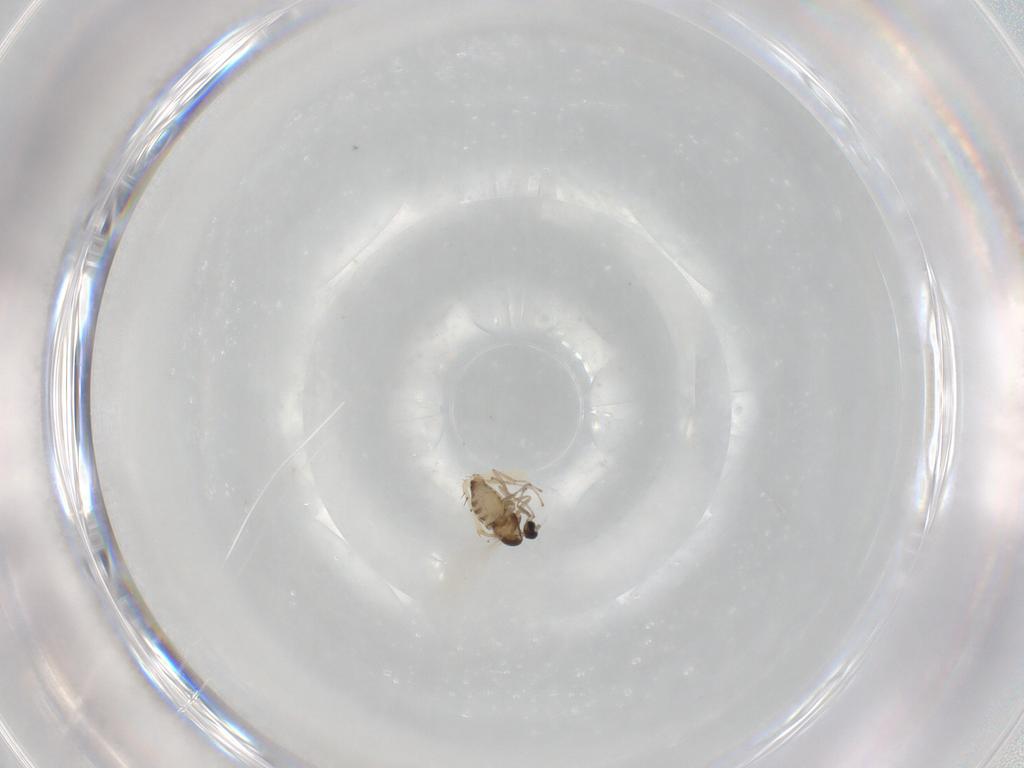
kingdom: Animalia
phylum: Arthropoda
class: Insecta
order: Diptera
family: Cecidomyiidae
